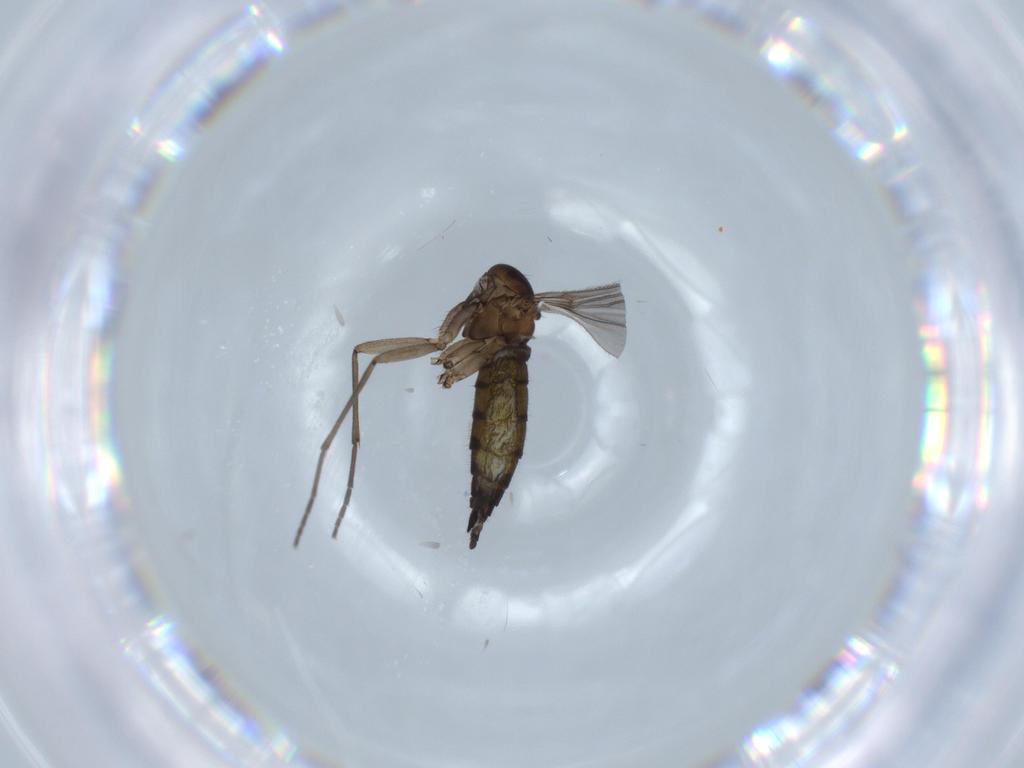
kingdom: Animalia
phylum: Arthropoda
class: Insecta
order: Diptera
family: Sciaridae
